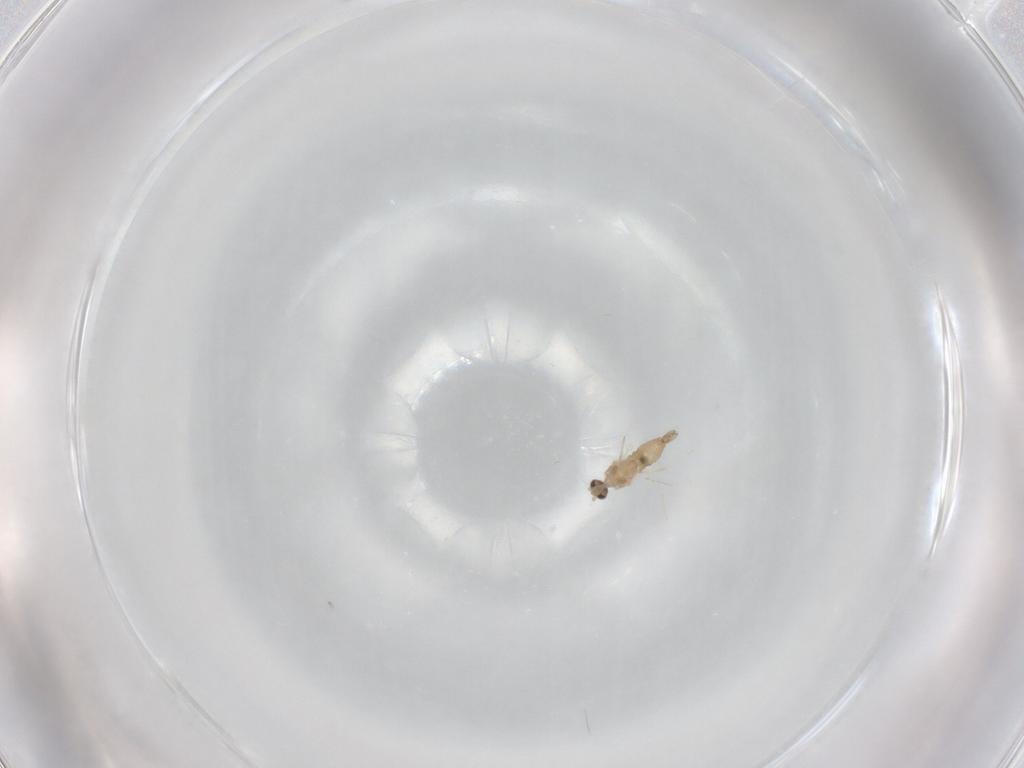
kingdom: Animalia
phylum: Arthropoda
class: Insecta
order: Diptera
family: Cecidomyiidae
